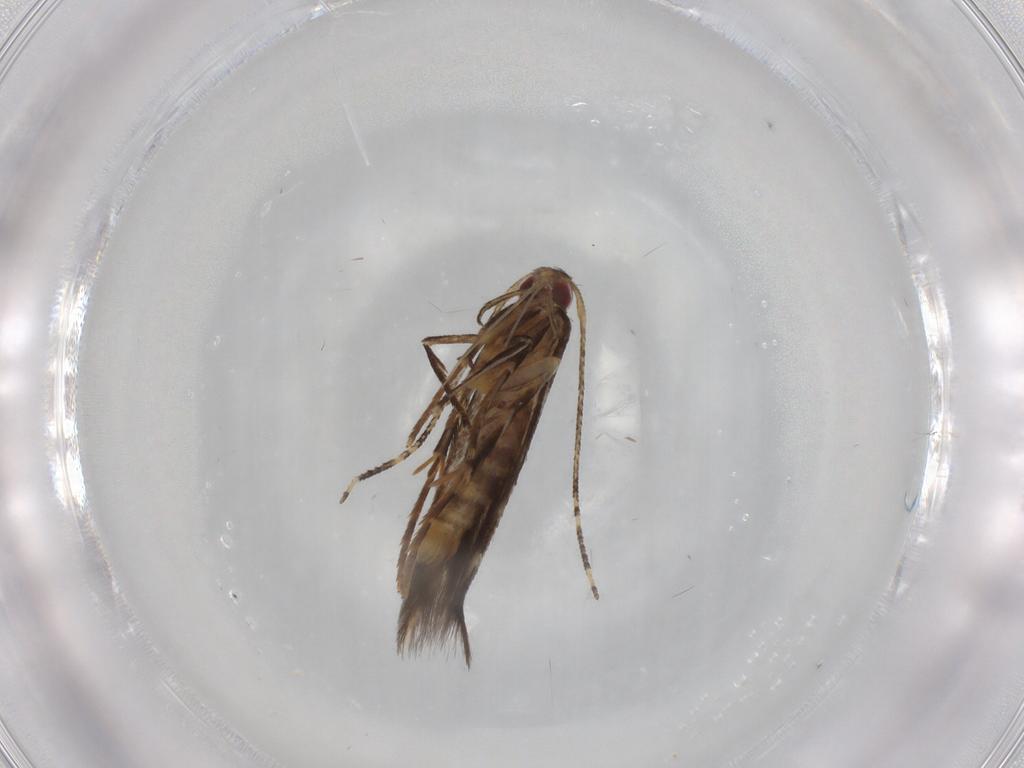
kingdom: Animalia
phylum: Arthropoda
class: Insecta
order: Lepidoptera
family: Cosmopterigidae
